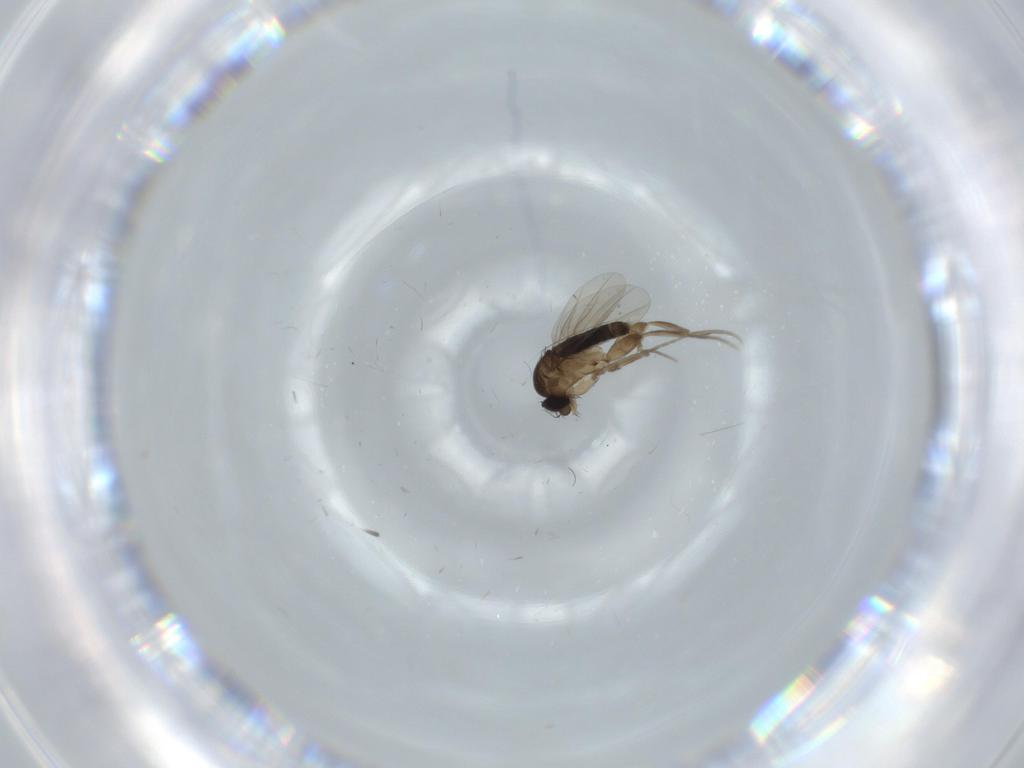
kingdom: Animalia
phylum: Arthropoda
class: Insecta
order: Diptera
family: Phoridae
